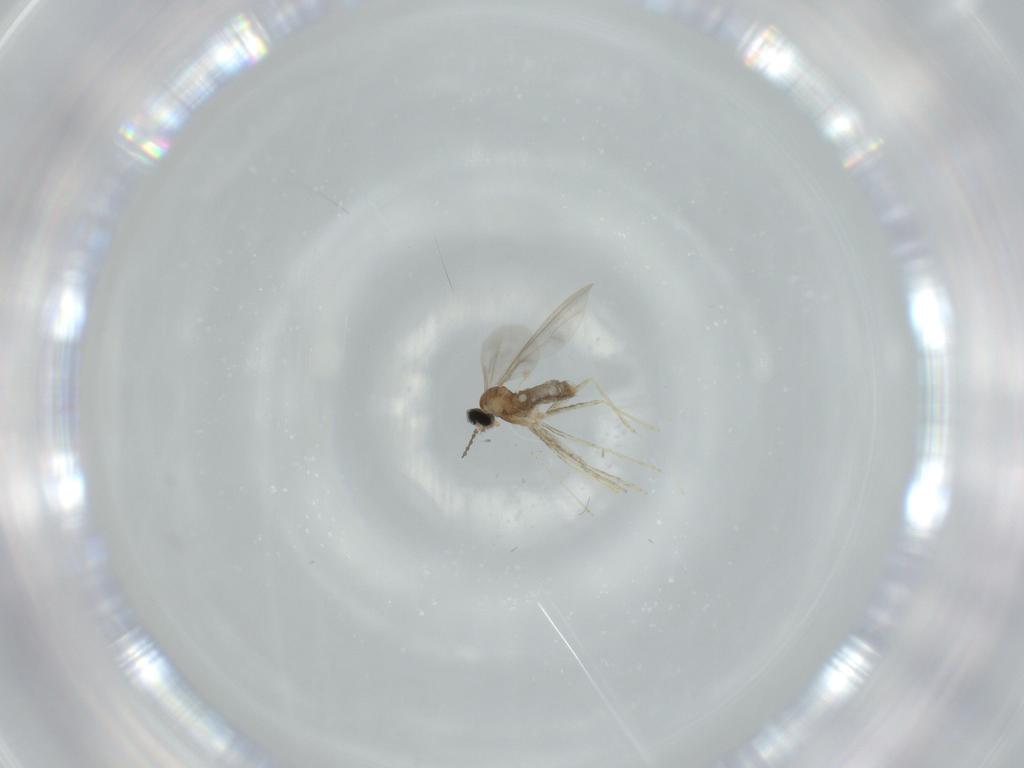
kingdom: Animalia
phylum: Arthropoda
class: Insecta
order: Diptera
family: Cecidomyiidae
